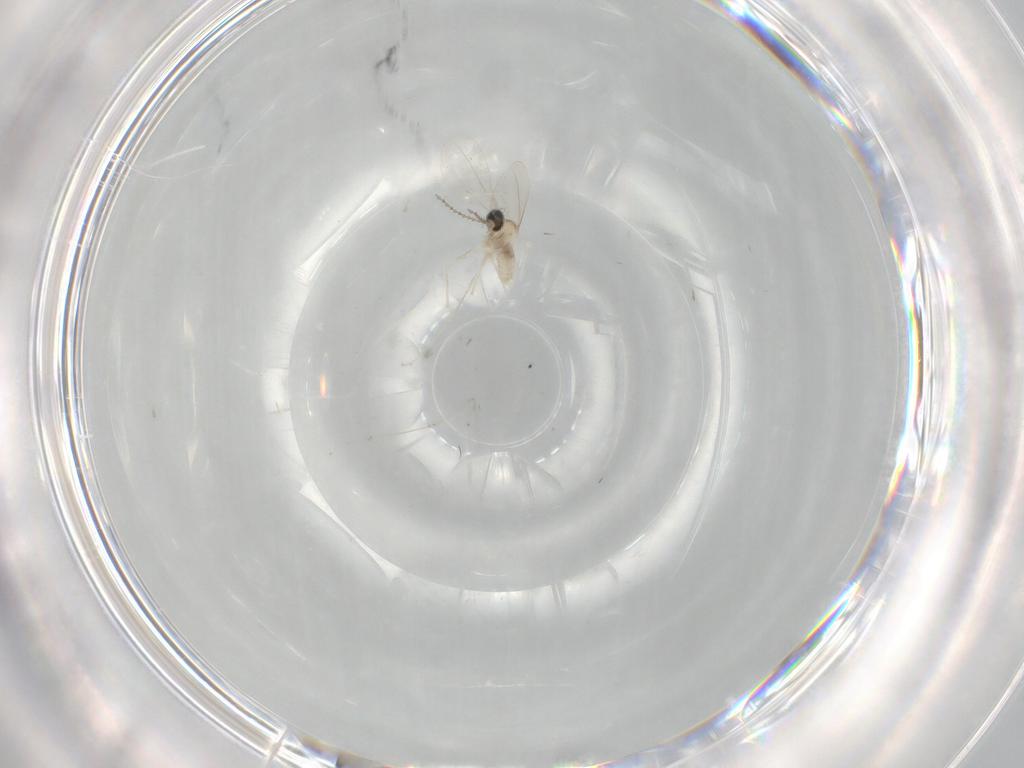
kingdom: Animalia
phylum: Arthropoda
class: Insecta
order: Diptera
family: Cecidomyiidae
